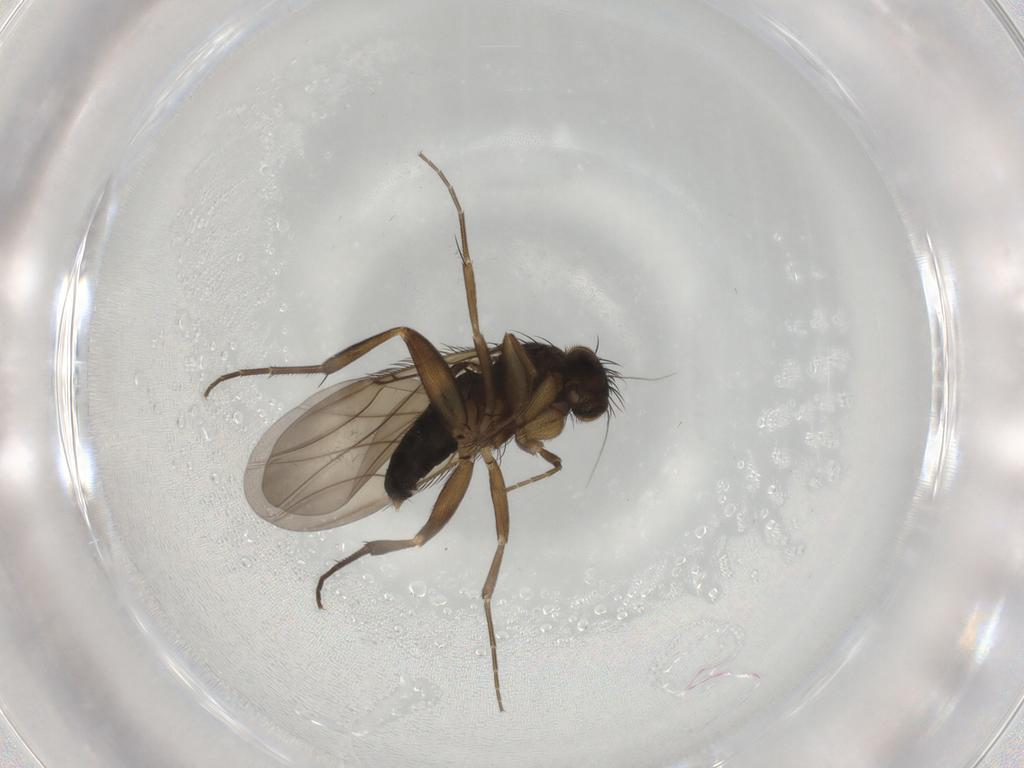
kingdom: Animalia
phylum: Arthropoda
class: Insecta
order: Diptera
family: Phoridae
